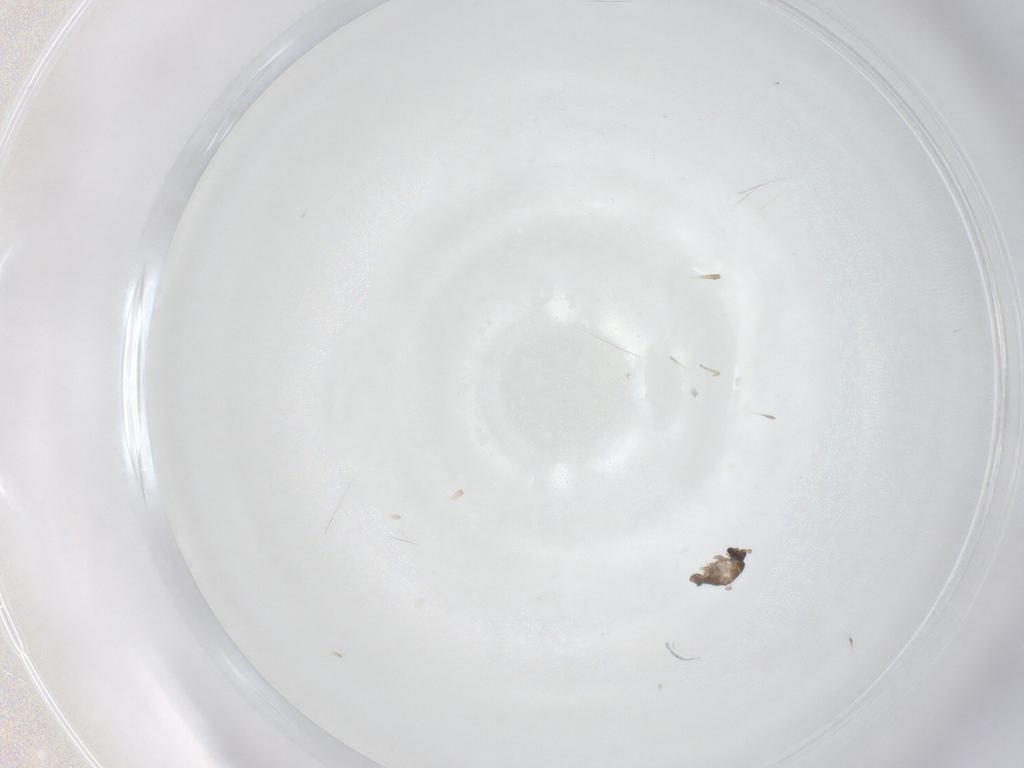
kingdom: Animalia
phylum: Arthropoda
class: Insecta
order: Diptera
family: Cecidomyiidae
